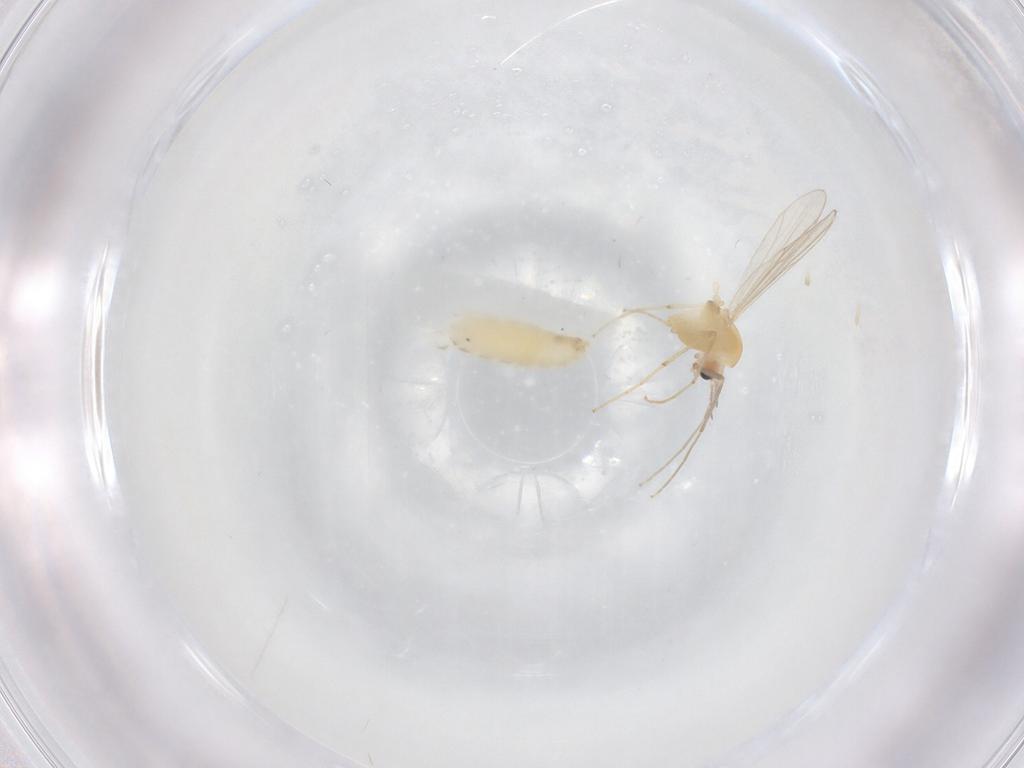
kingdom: Animalia
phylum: Arthropoda
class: Insecta
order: Diptera
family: Chironomidae
